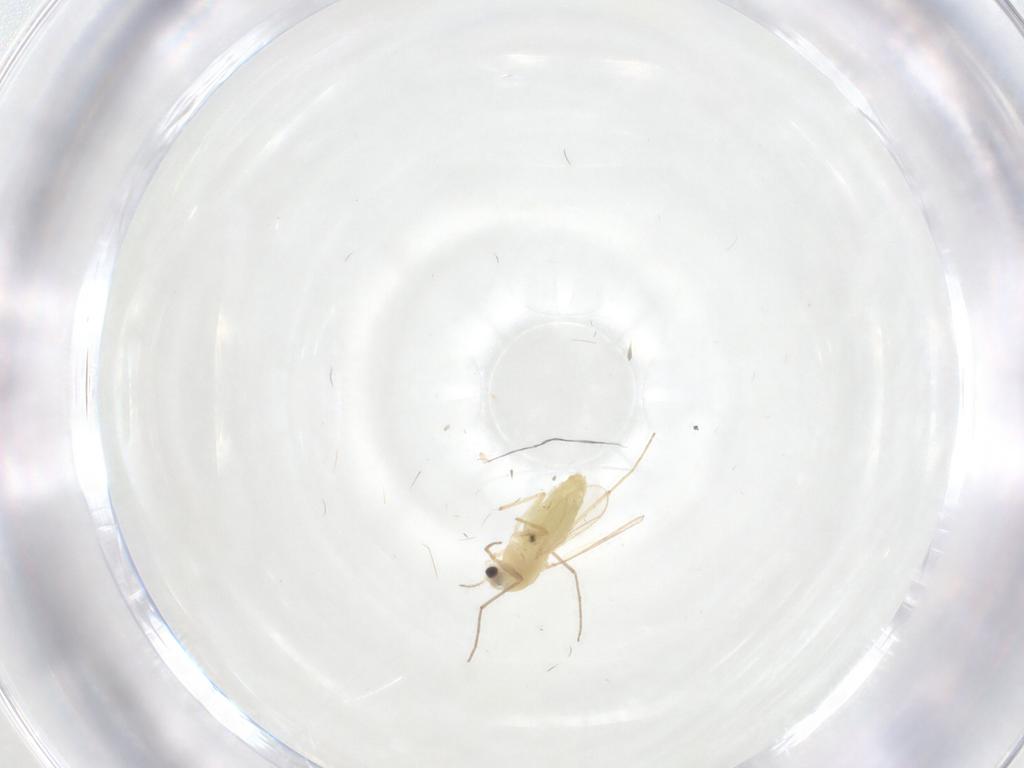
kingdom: Animalia
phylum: Arthropoda
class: Insecta
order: Diptera
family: Chironomidae
